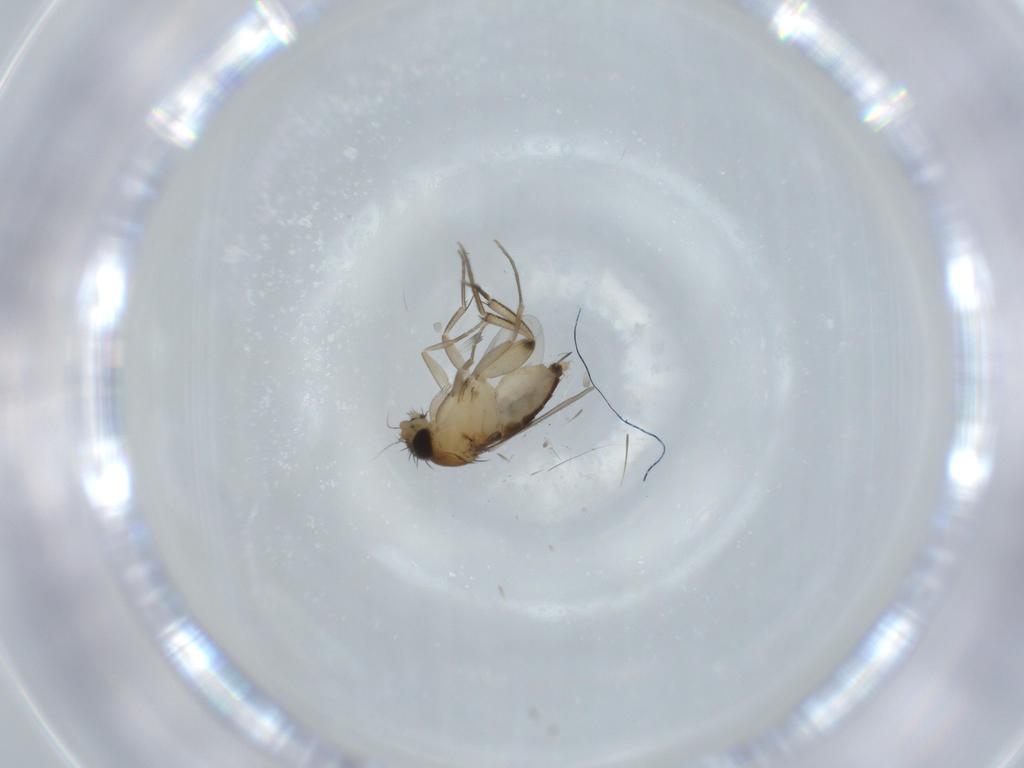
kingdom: Animalia
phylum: Arthropoda
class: Insecta
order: Diptera
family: Phoridae
